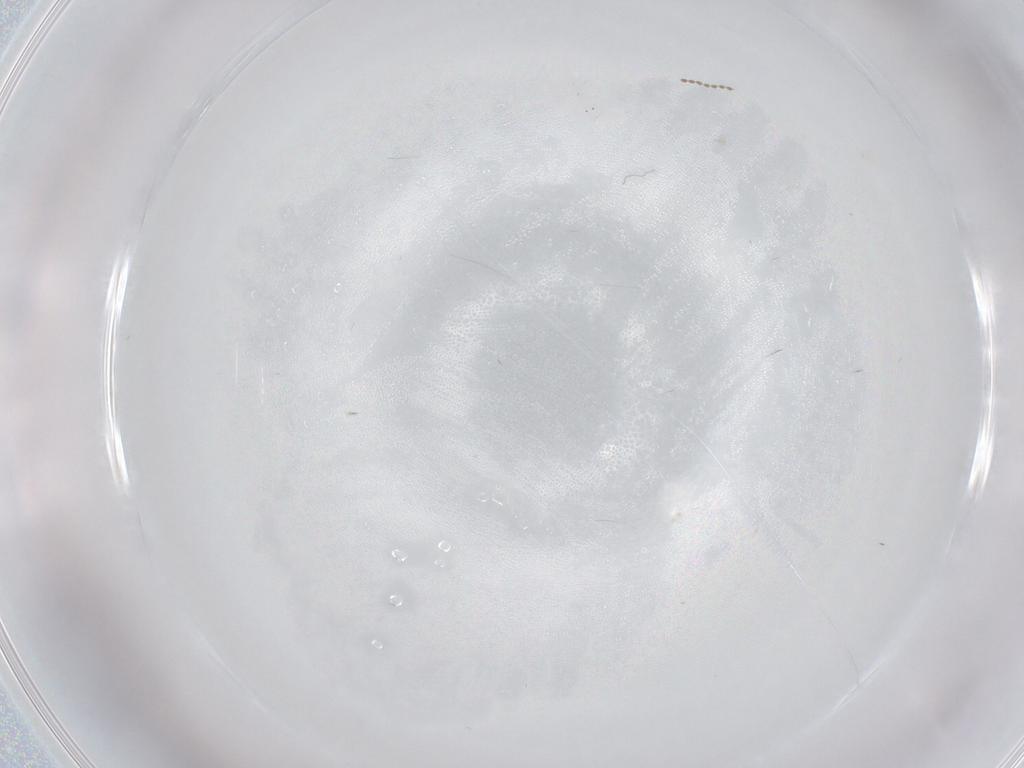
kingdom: Animalia
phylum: Arthropoda
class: Insecta
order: Diptera
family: Cecidomyiidae
